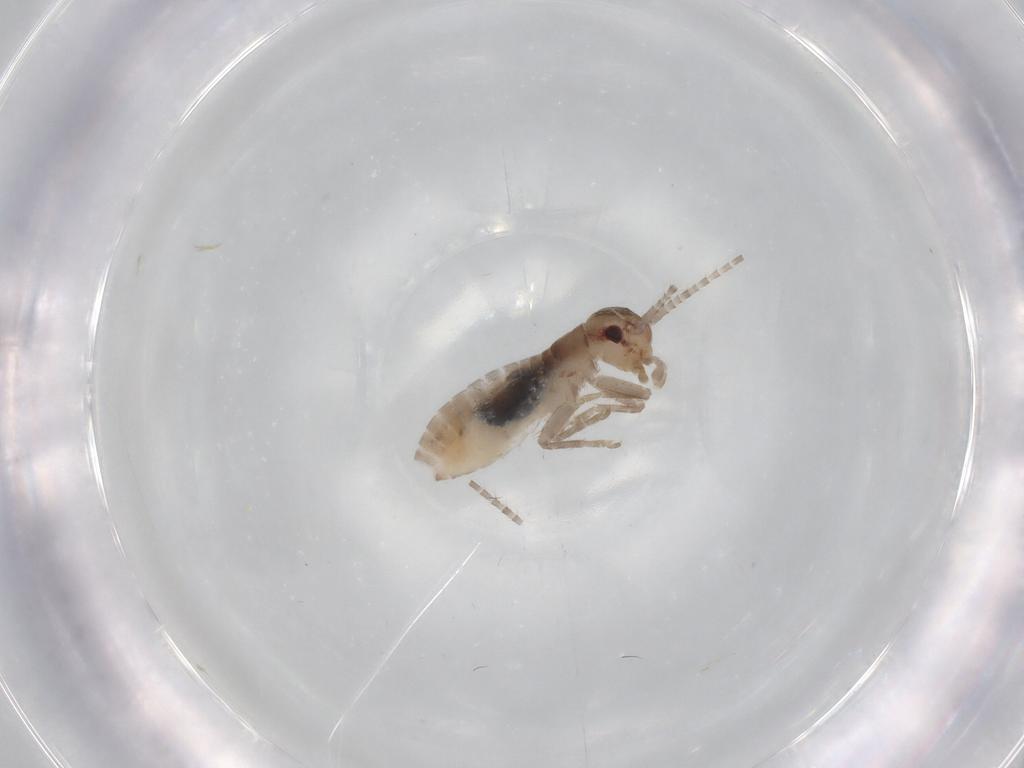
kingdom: Animalia
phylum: Arthropoda
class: Insecta
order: Orthoptera
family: Mogoplistidae
